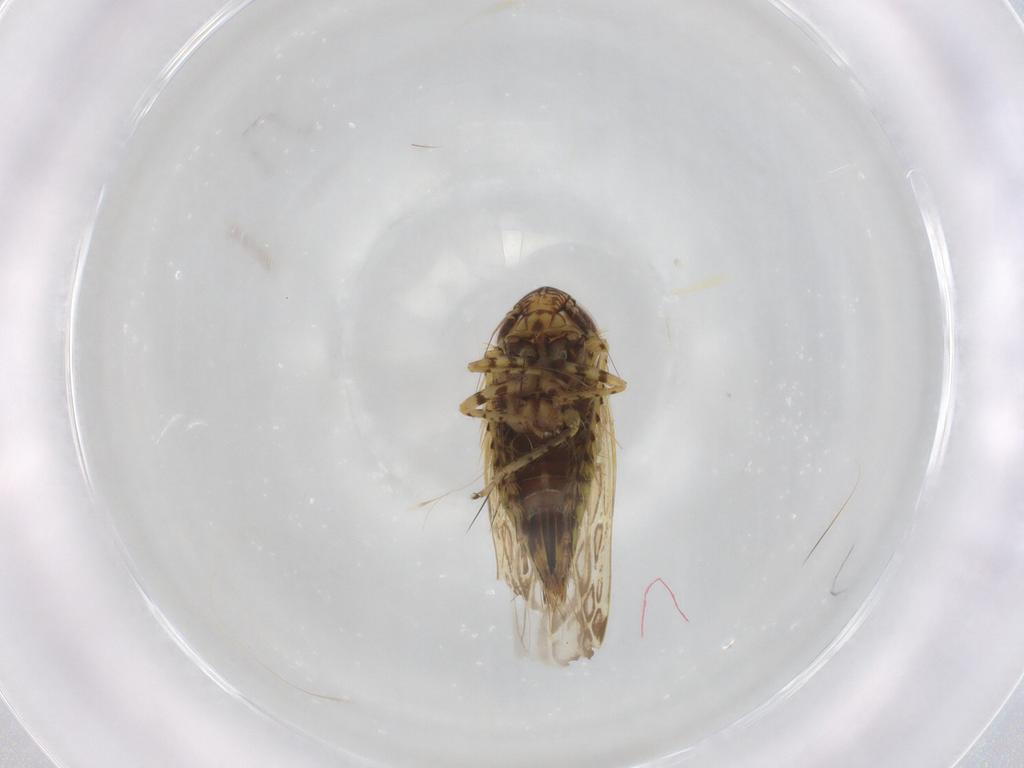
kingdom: Animalia
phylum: Arthropoda
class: Insecta
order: Hemiptera
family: Cicadellidae
